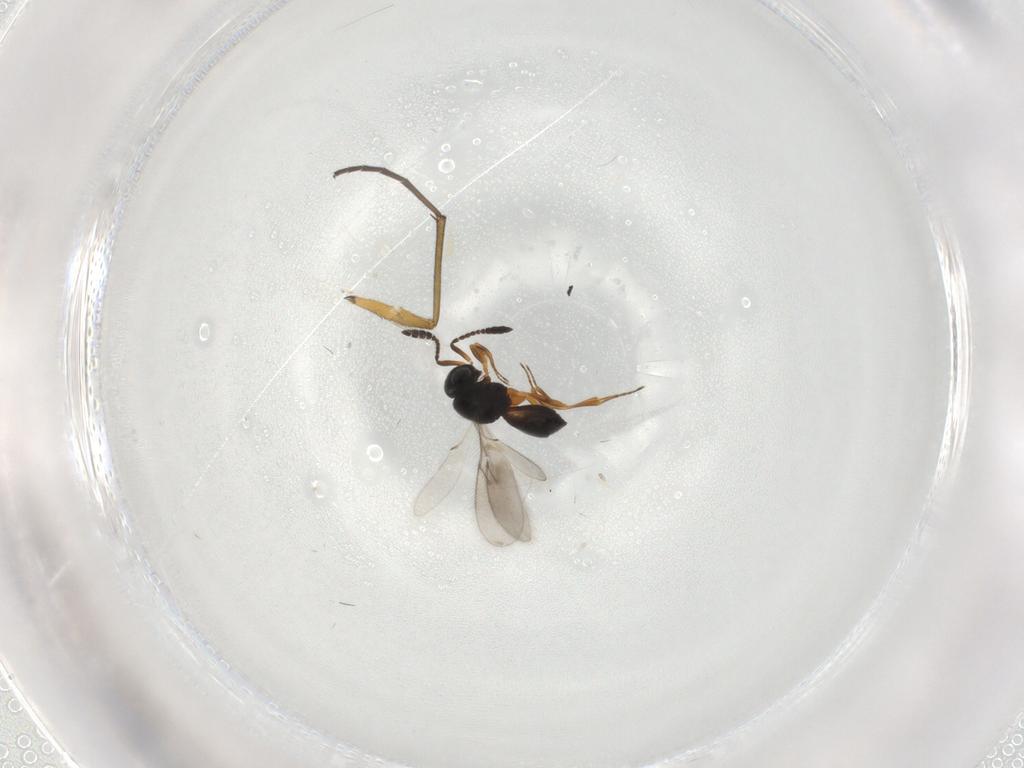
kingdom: Animalia
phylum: Arthropoda
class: Insecta
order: Hymenoptera
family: Scelionidae
